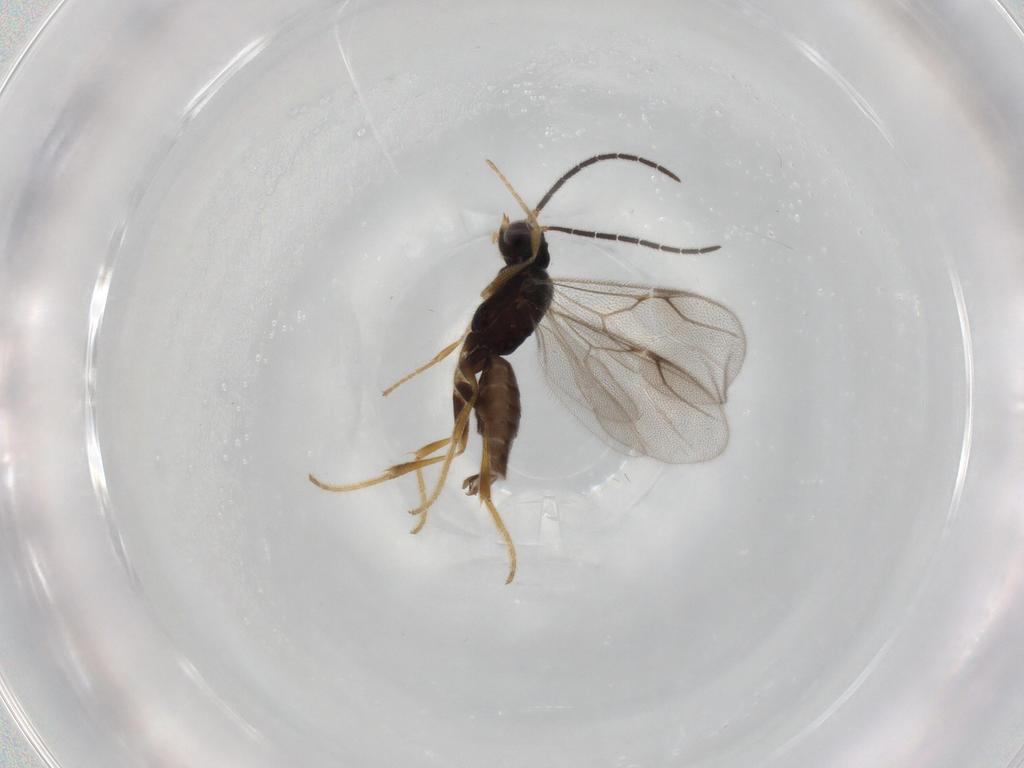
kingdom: Animalia
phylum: Arthropoda
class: Insecta
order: Hymenoptera
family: Dryinidae
